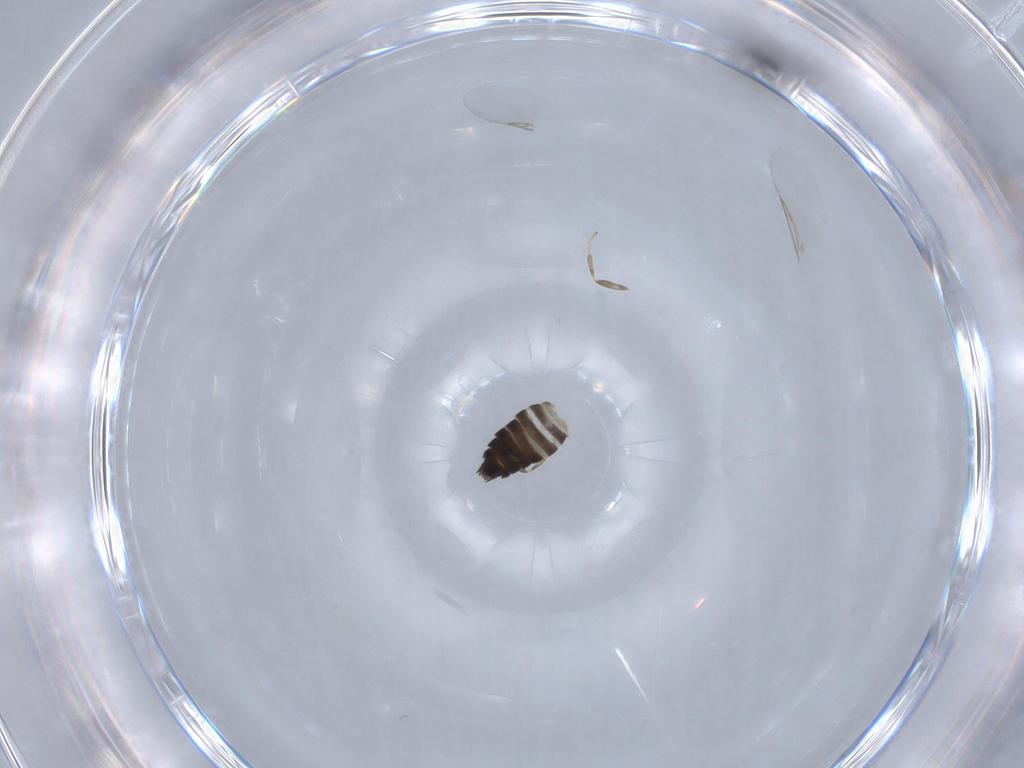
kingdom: Animalia
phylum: Arthropoda
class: Insecta
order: Diptera
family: Scatopsidae
